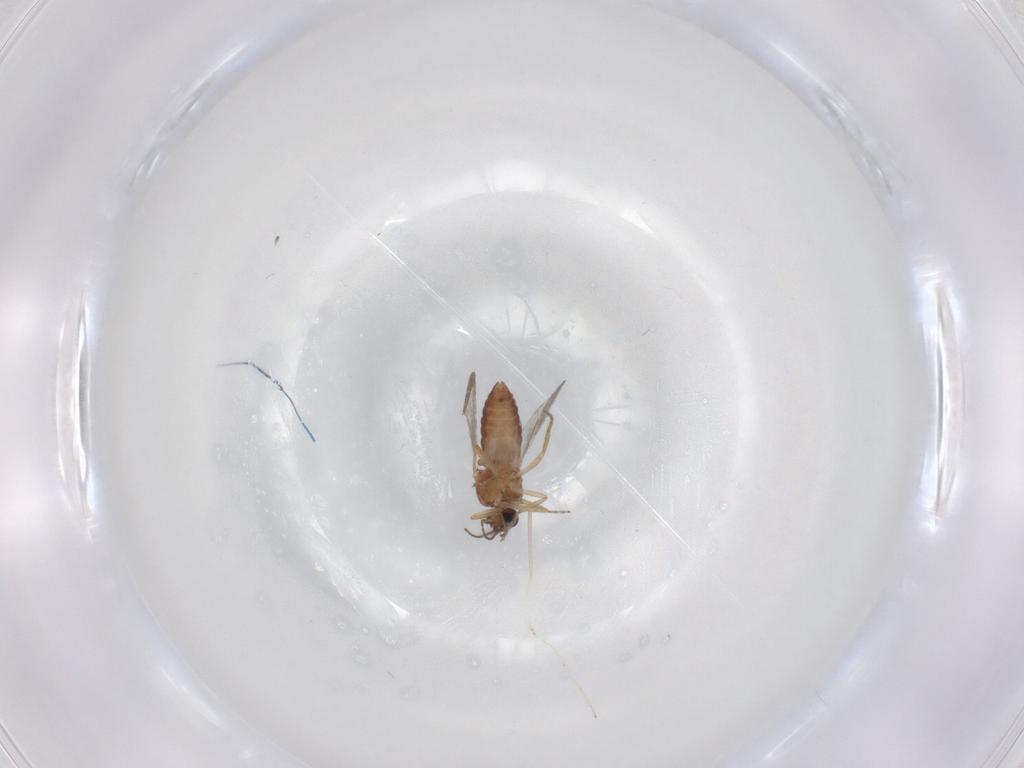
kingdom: Animalia
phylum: Arthropoda
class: Insecta
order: Diptera
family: Ceratopogonidae
